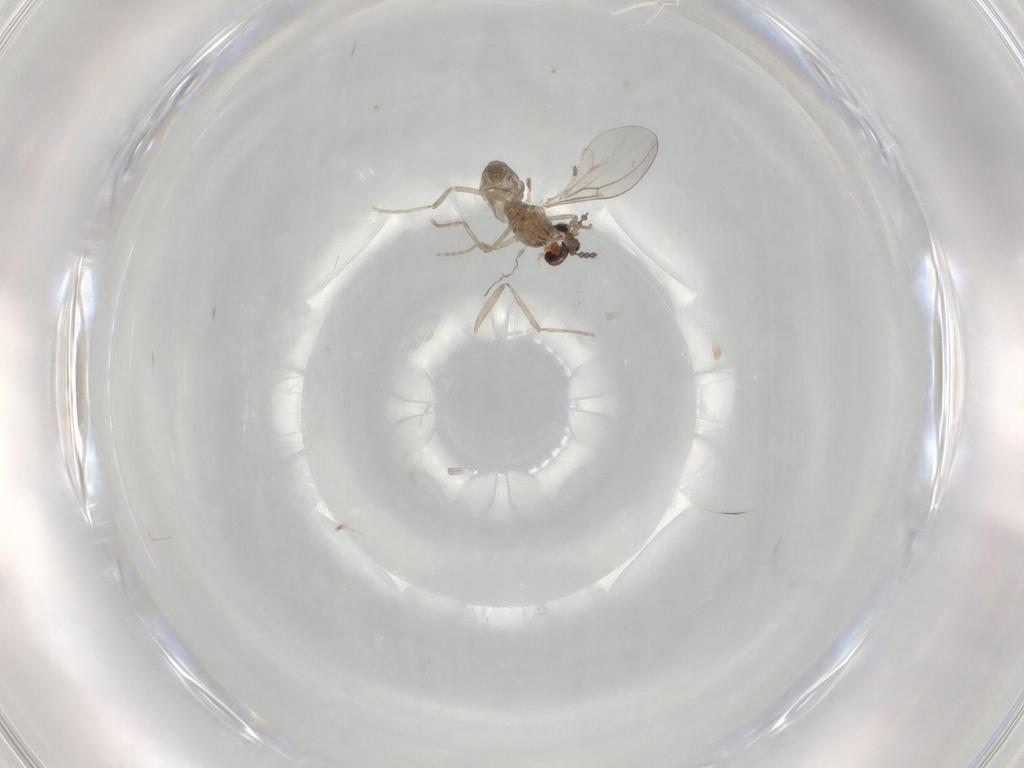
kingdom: Animalia
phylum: Arthropoda
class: Insecta
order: Diptera
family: Cecidomyiidae
